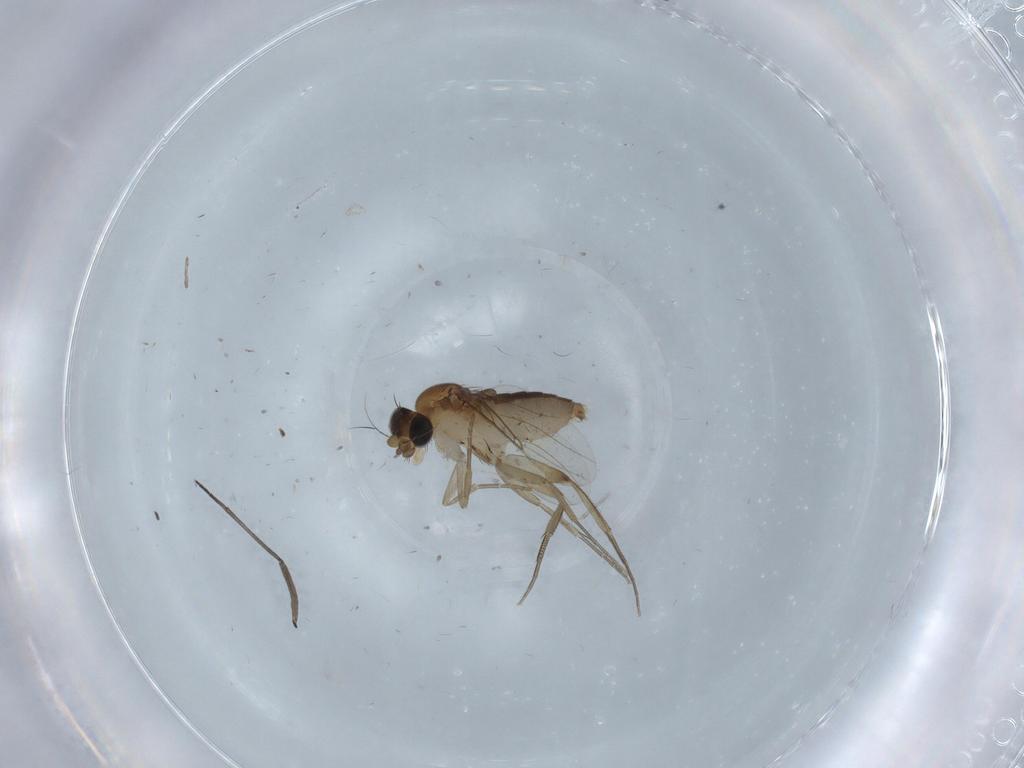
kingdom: Animalia
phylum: Arthropoda
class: Insecta
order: Diptera
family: Phoridae
